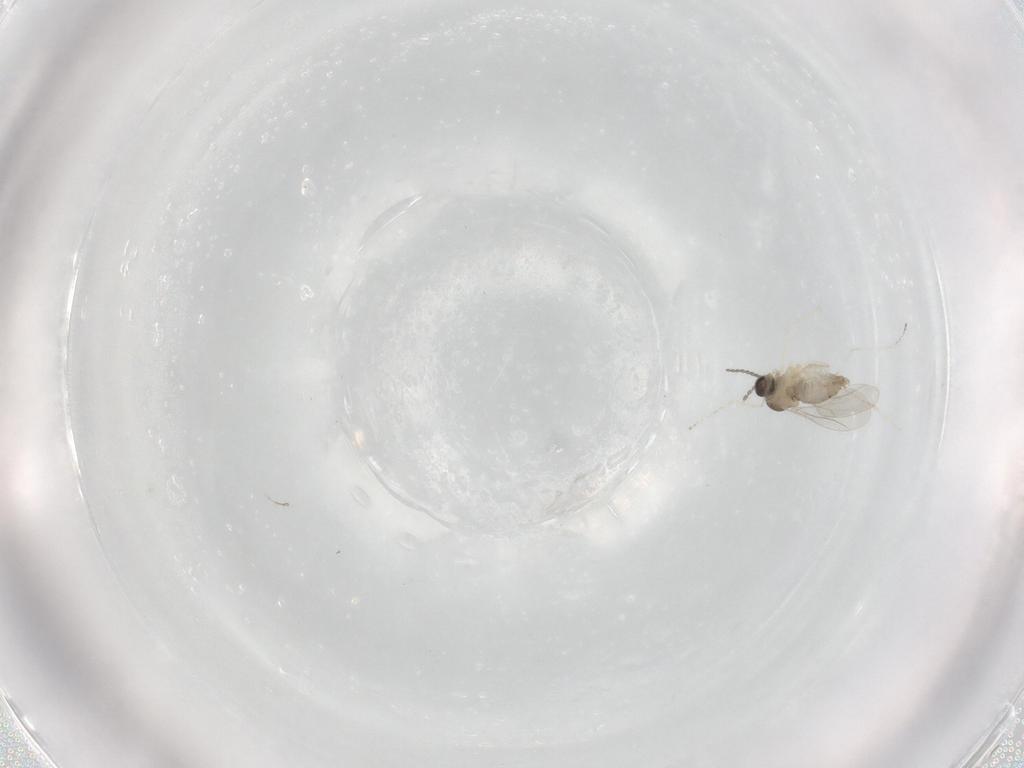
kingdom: Animalia
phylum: Arthropoda
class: Insecta
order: Diptera
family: Cecidomyiidae
